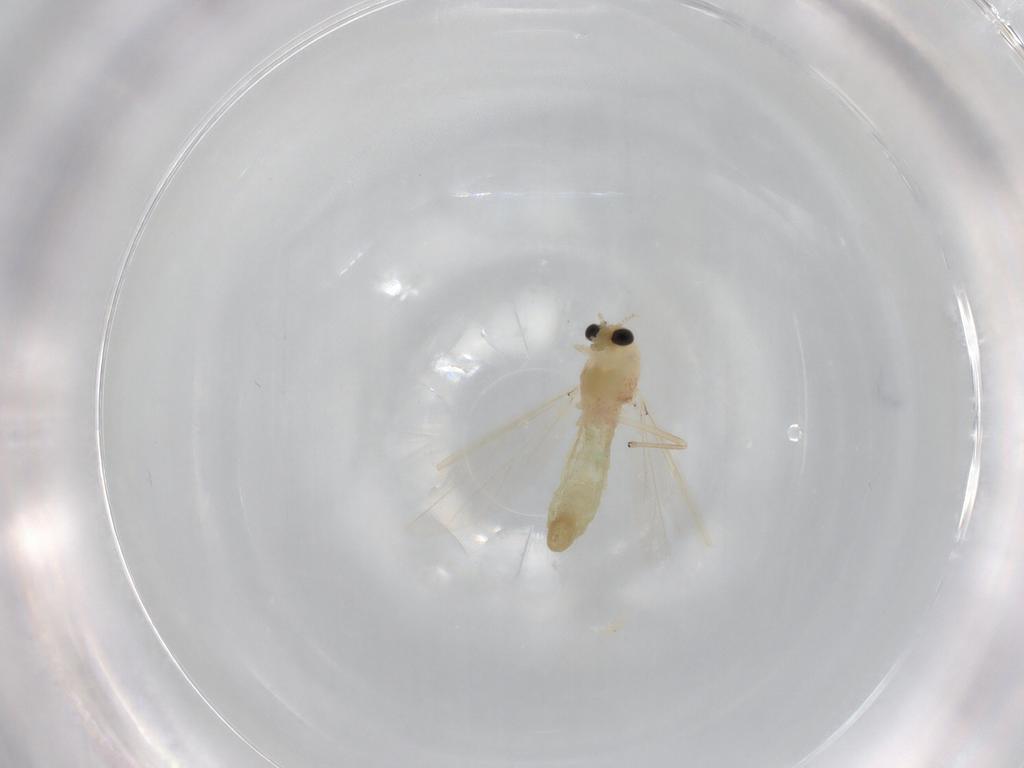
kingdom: Animalia
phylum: Arthropoda
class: Insecta
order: Diptera
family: Chironomidae
